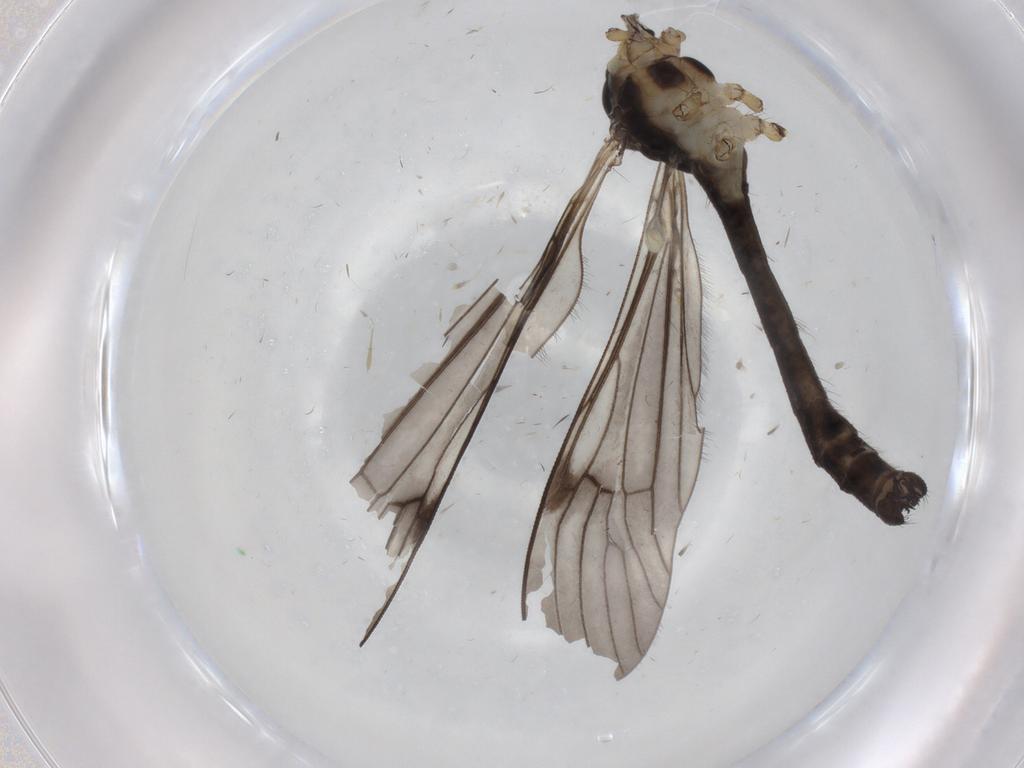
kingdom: Animalia
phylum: Arthropoda
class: Insecta
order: Diptera
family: Limoniidae
